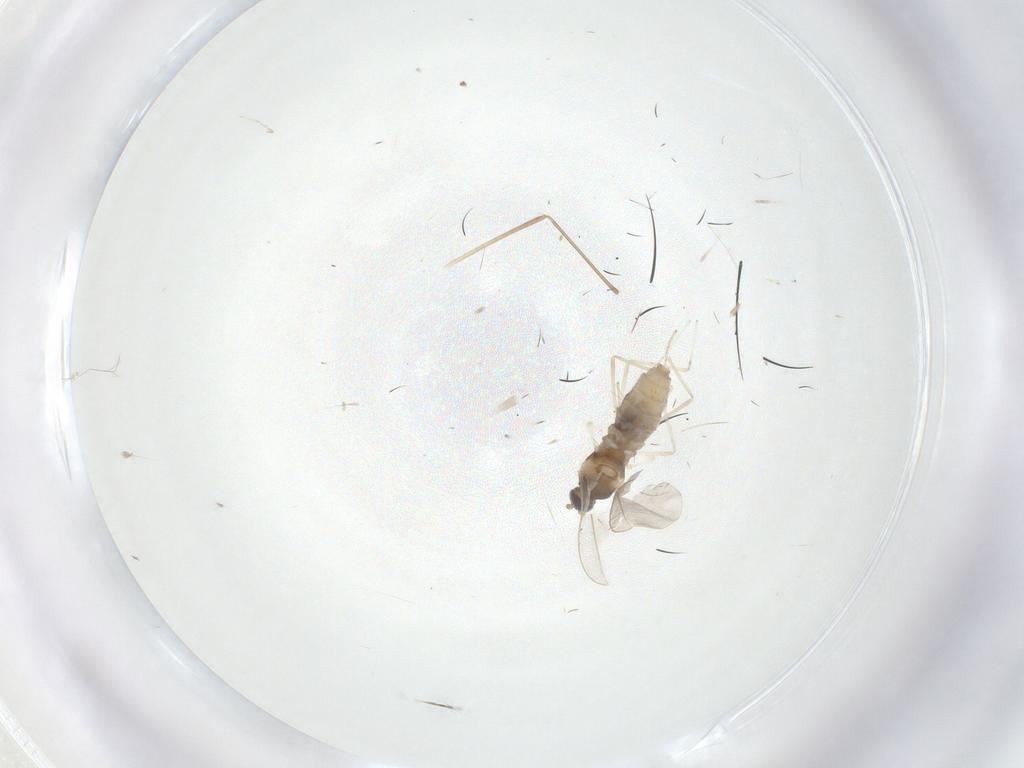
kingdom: Animalia
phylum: Arthropoda
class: Insecta
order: Diptera
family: Cecidomyiidae
